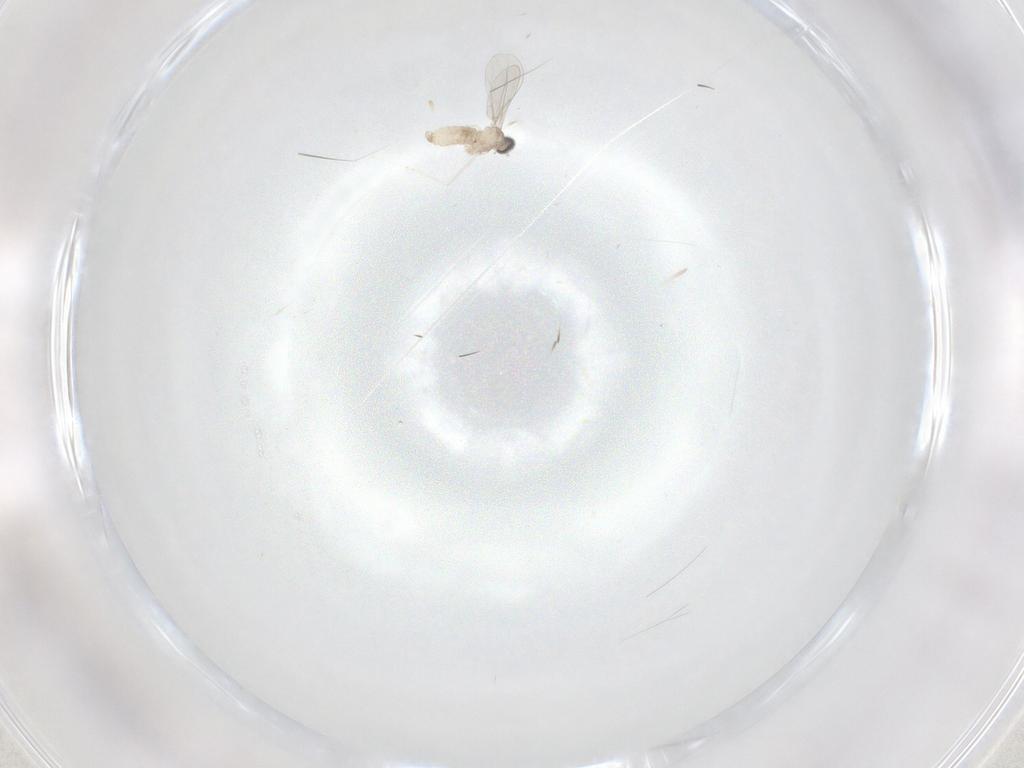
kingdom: Animalia
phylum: Arthropoda
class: Insecta
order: Diptera
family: Cecidomyiidae
